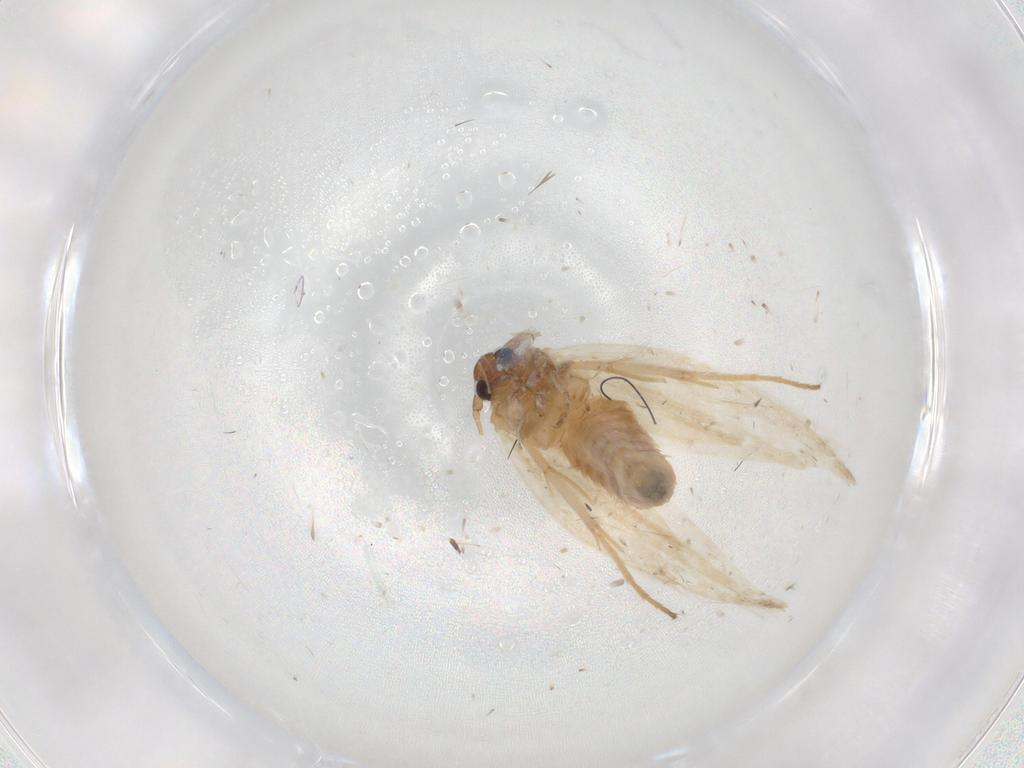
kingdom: Animalia
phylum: Arthropoda
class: Insecta
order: Lepidoptera
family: Gelechiidae
